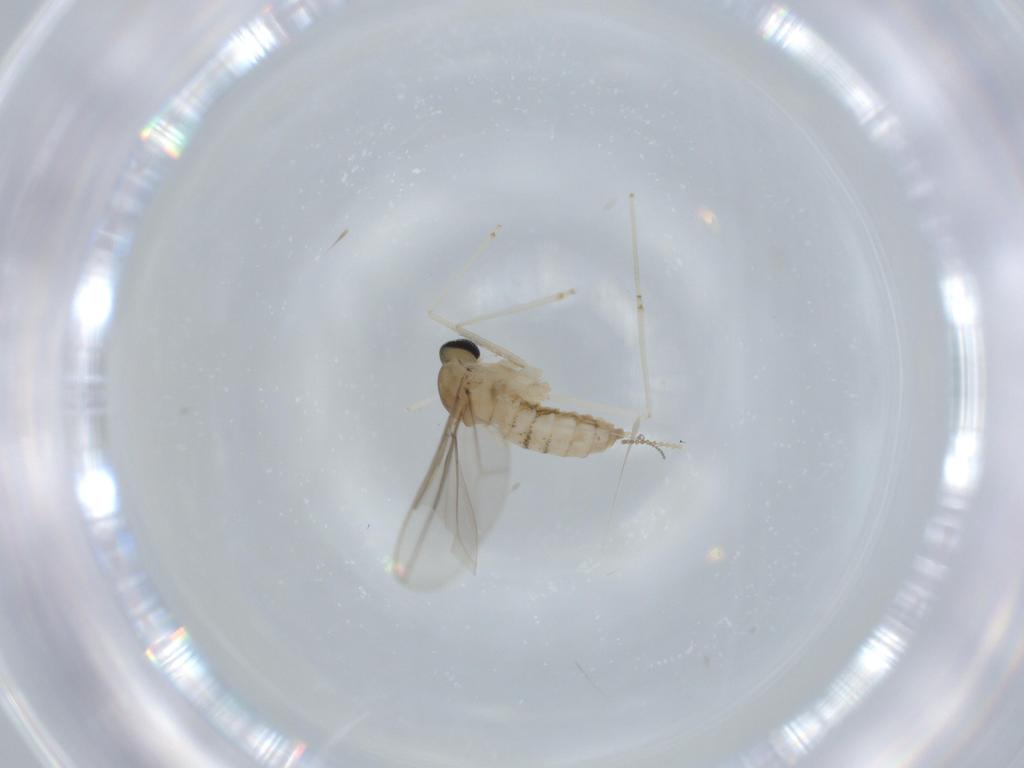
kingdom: Animalia
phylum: Arthropoda
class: Insecta
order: Diptera
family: Cecidomyiidae
